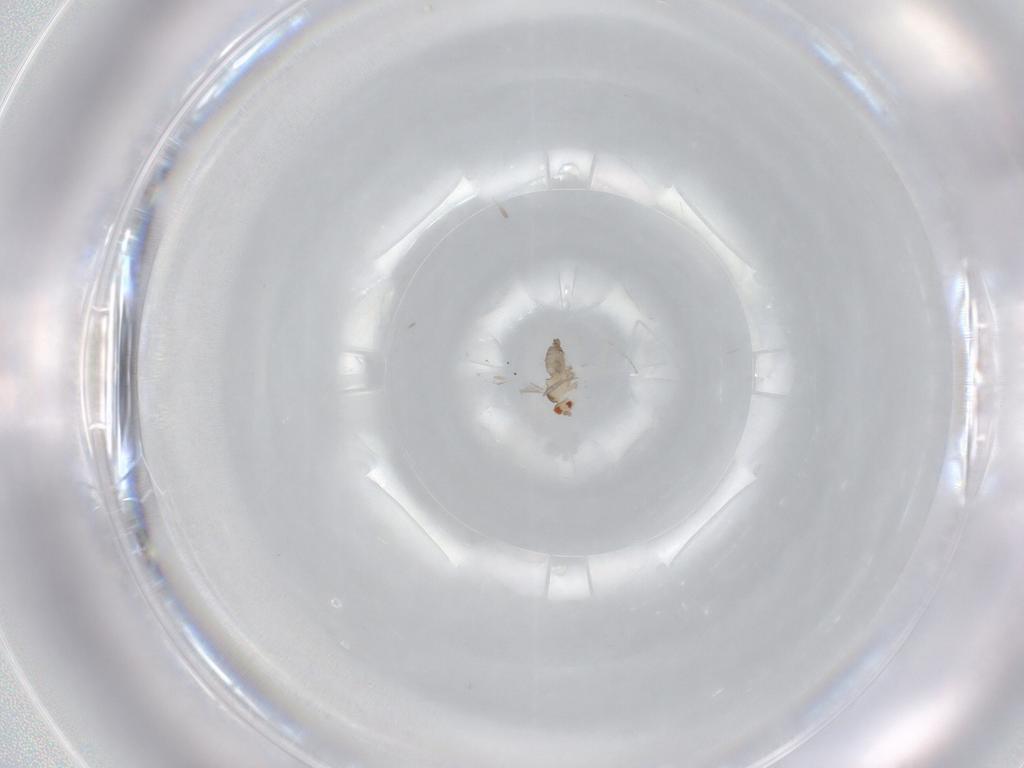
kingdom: Animalia
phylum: Arthropoda
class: Insecta
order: Diptera
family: Cecidomyiidae
